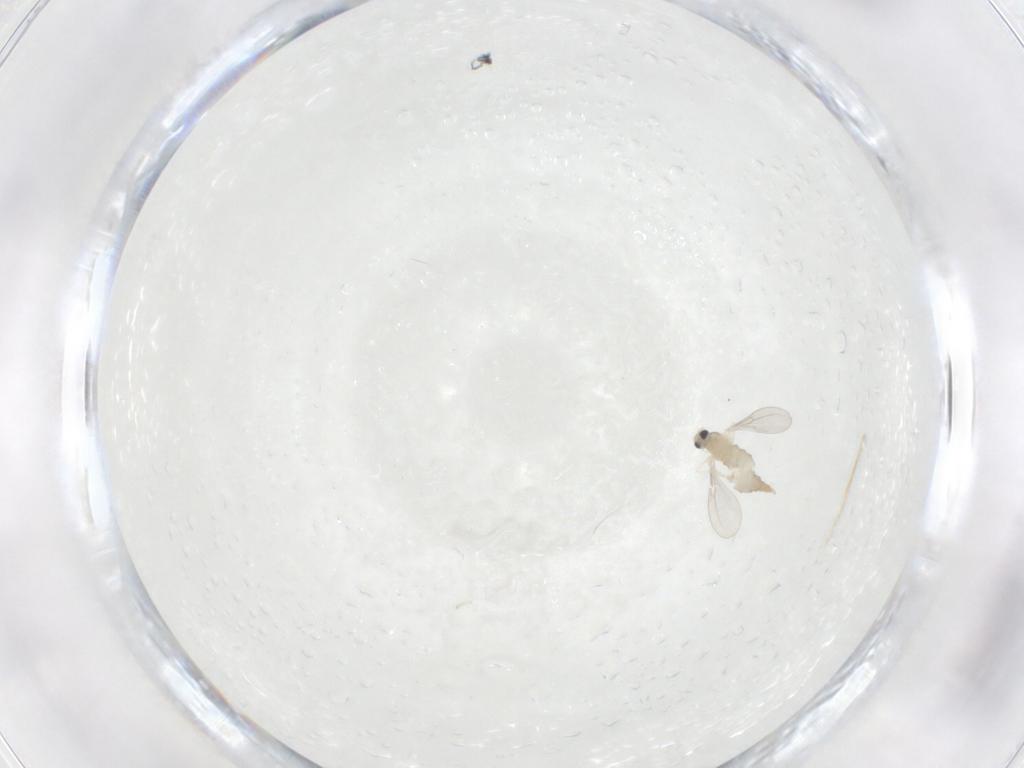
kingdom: Animalia
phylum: Arthropoda
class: Insecta
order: Diptera
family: Cecidomyiidae
